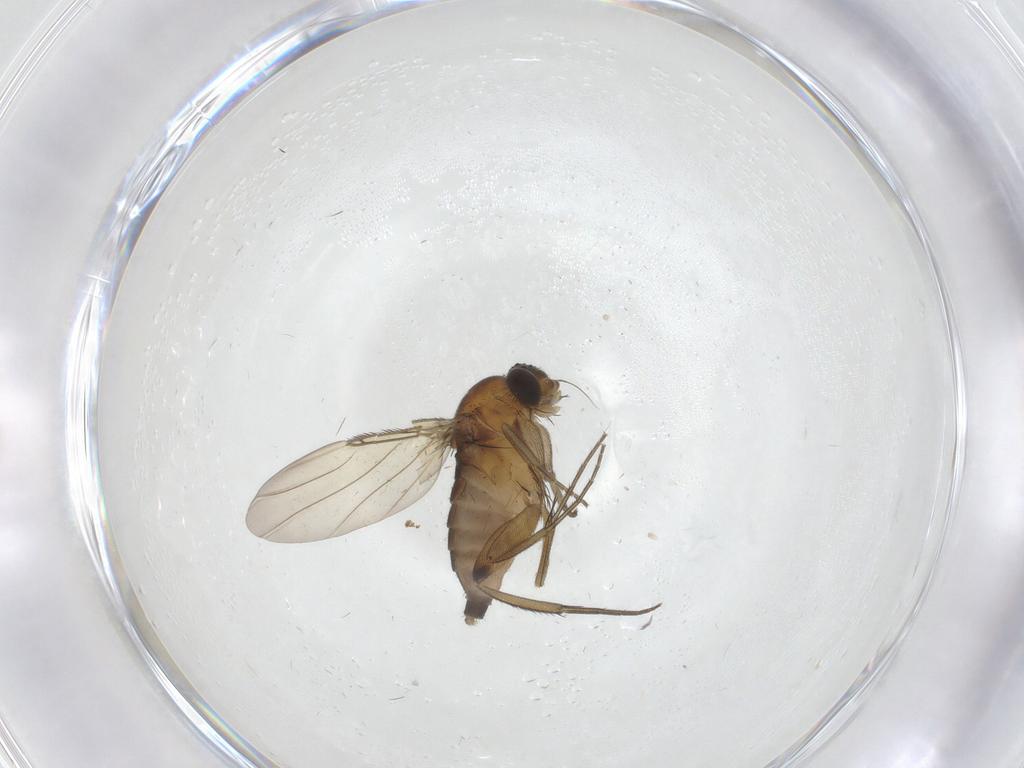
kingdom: Animalia
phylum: Arthropoda
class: Insecta
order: Diptera
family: Phoridae
